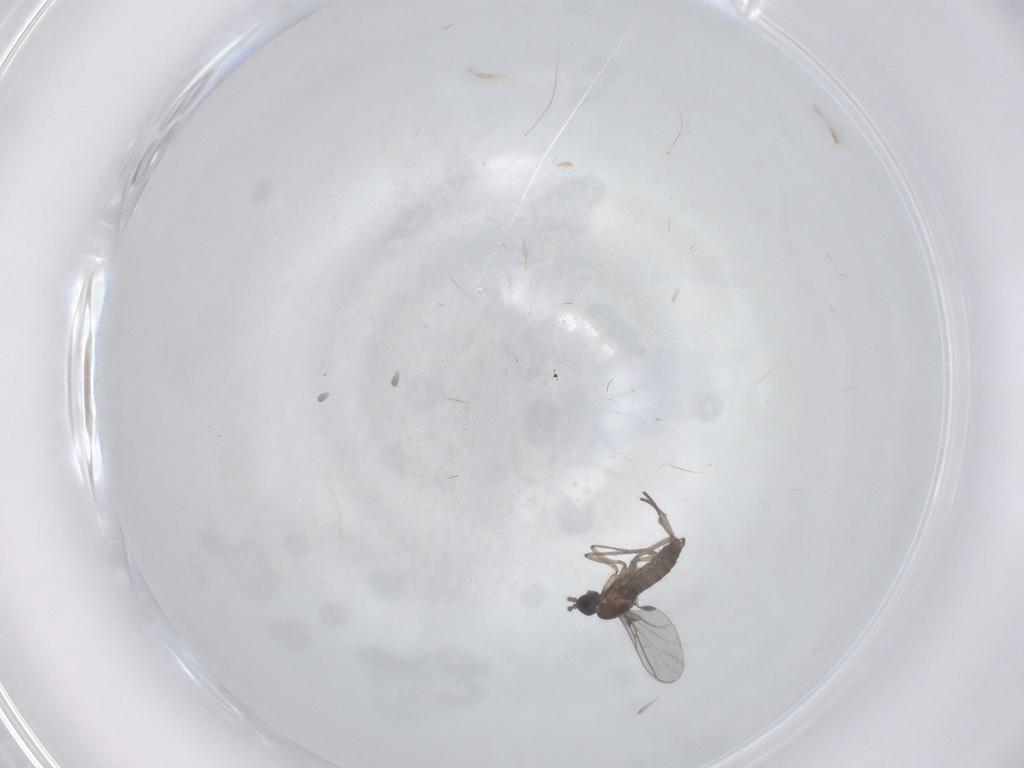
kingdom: Animalia
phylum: Arthropoda
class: Insecta
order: Diptera
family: Sciaridae
